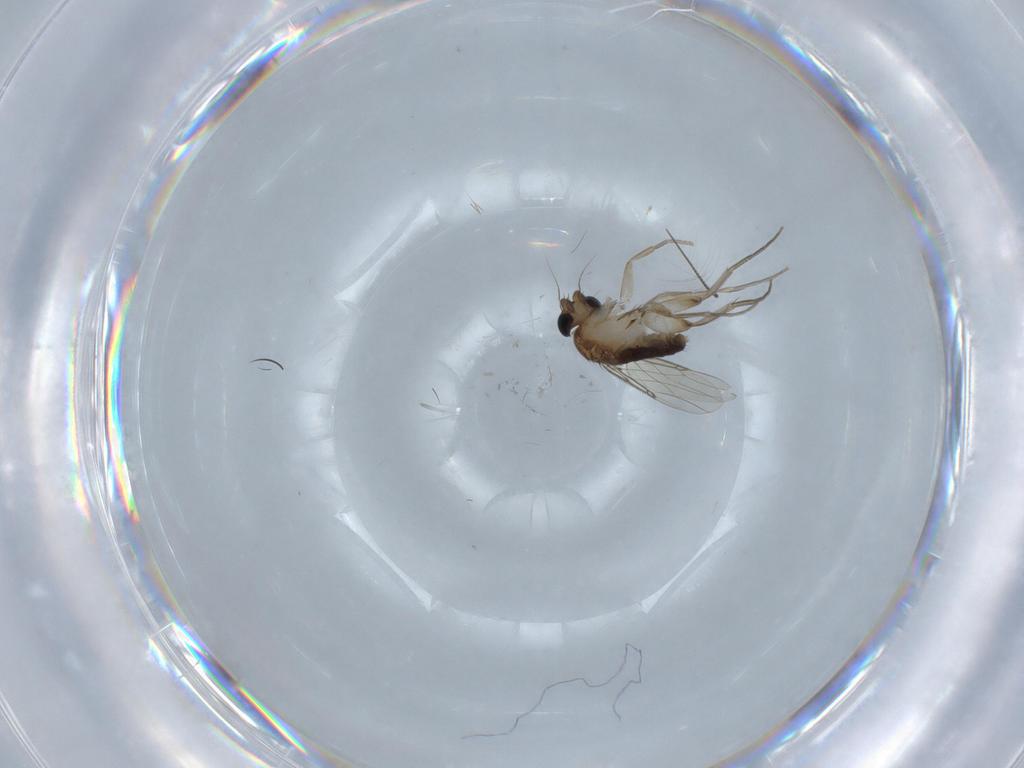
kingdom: Animalia
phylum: Arthropoda
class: Insecta
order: Diptera
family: Phoridae
